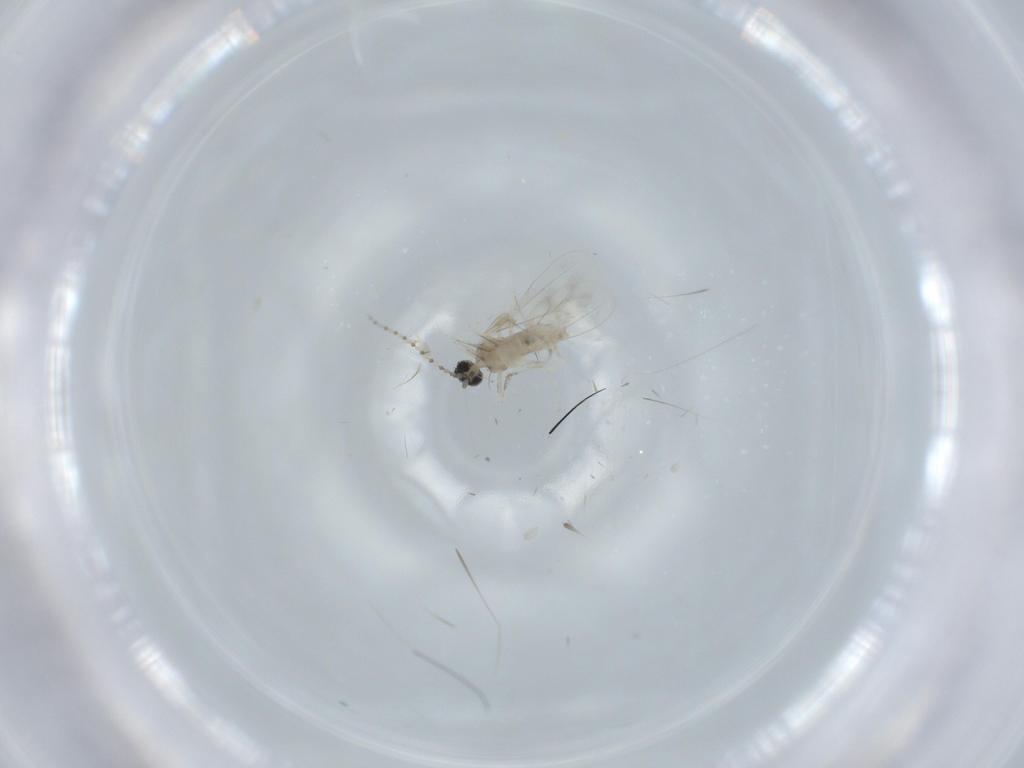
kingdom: Animalia
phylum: Arthropoda
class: Insecta
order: Diptera
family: Cecidomyiidae
